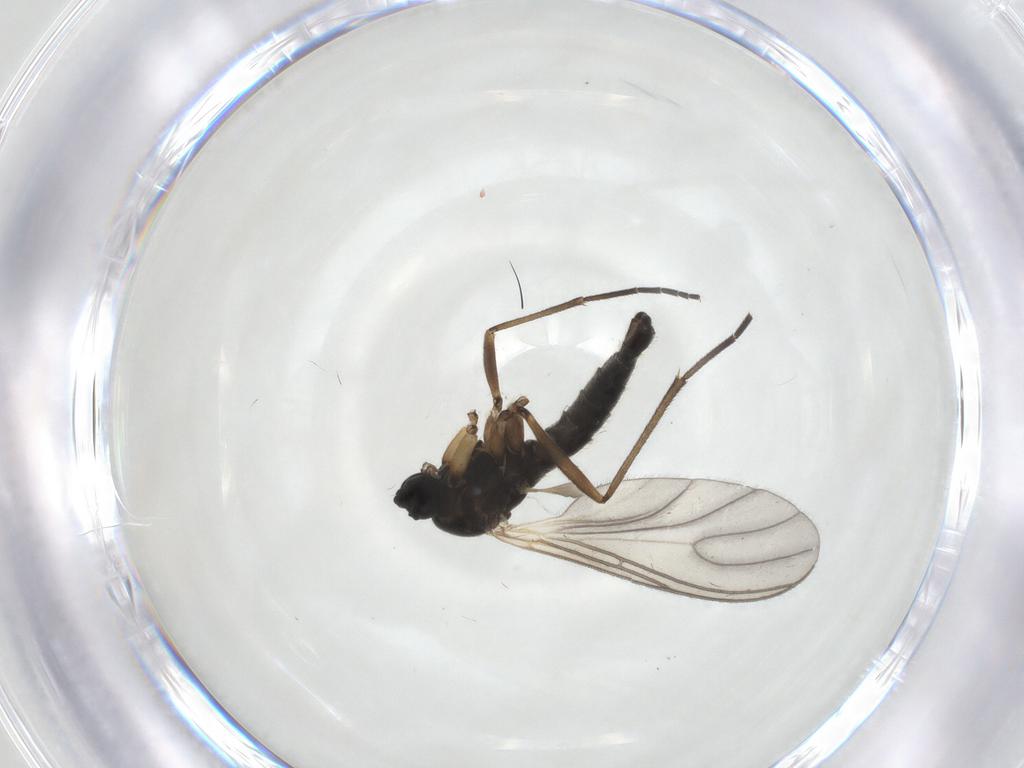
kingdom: Animalia
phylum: Arthropoda
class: Insecta
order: Diptera
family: Sciaridae
